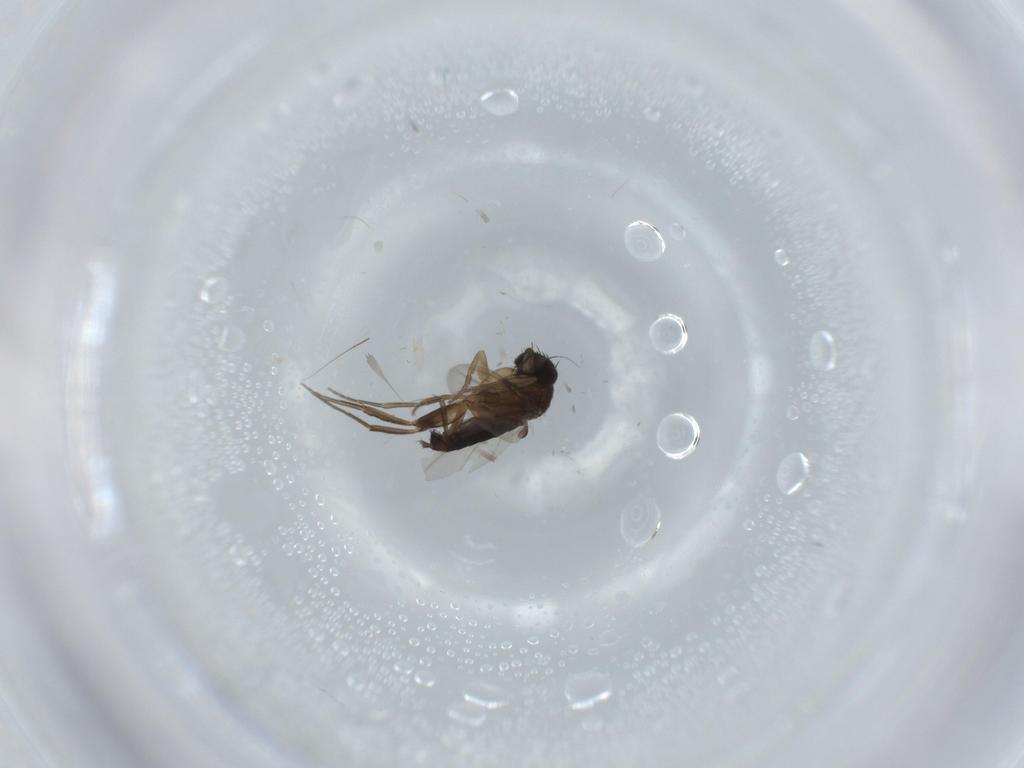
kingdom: Animalia
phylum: Arthropoda
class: Insecta
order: Diptera
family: Phoridae
